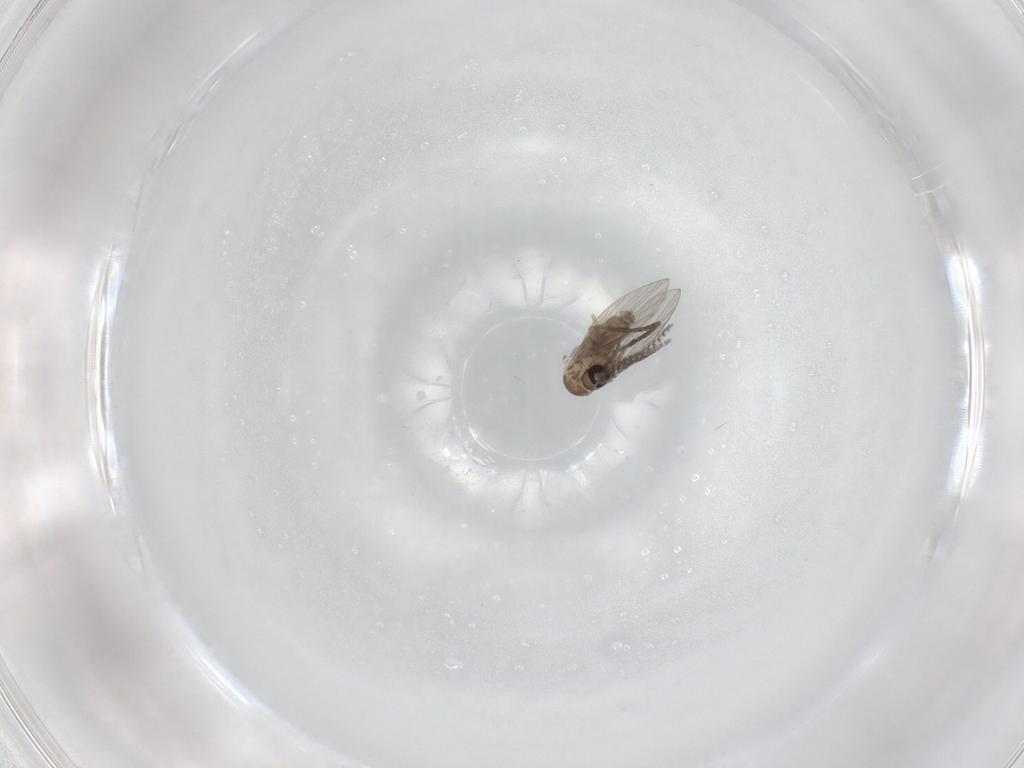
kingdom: Animalia
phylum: Arthropoda
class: Insecta
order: Diptera
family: Psychodidae
